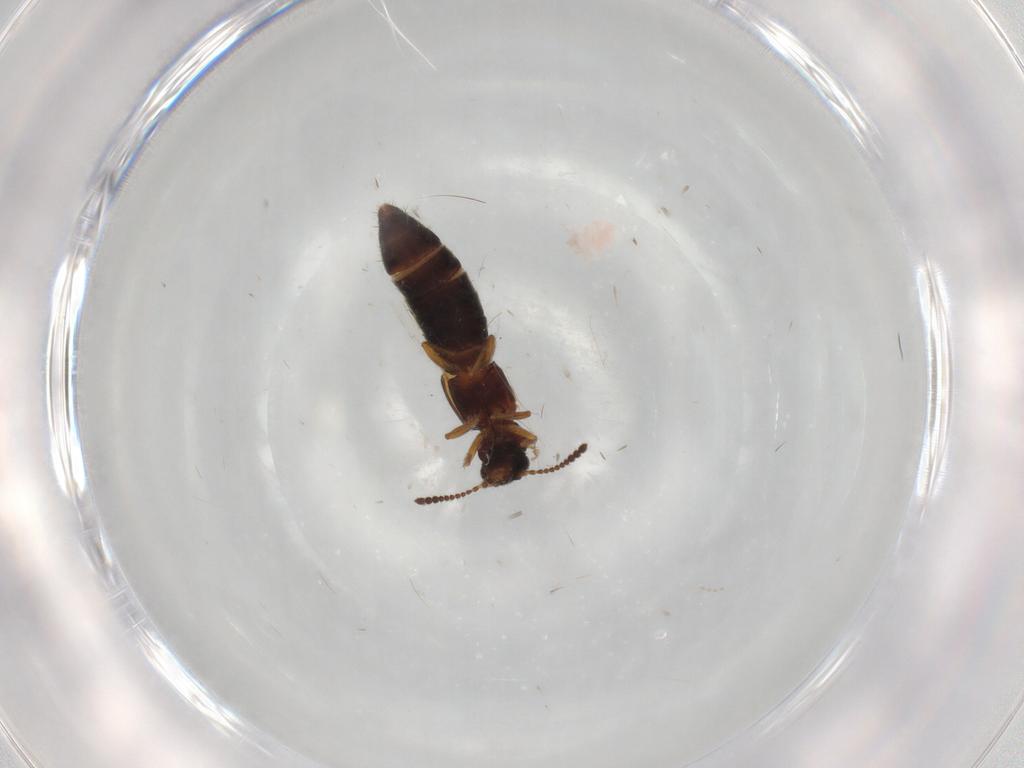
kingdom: Animalia
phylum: Arthropoda
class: Insecta
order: Coleoptera
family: Staphylinidae
